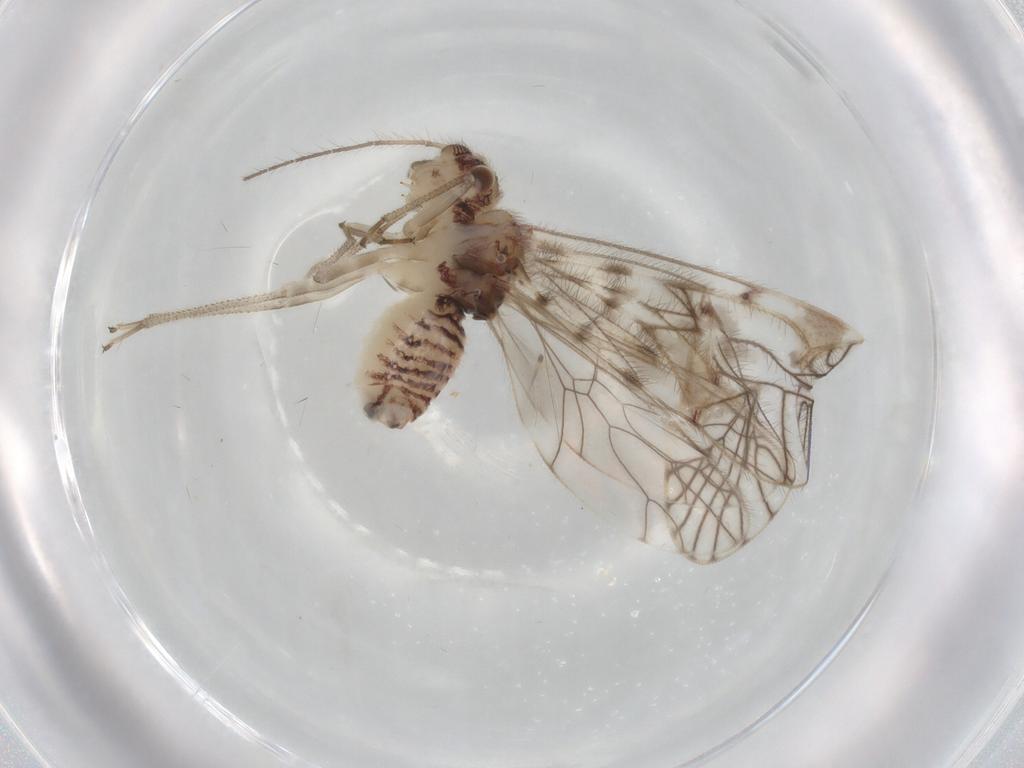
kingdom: Animalia
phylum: Arthropoda
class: Insecta
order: Psocodea
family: Amphipsocidae
